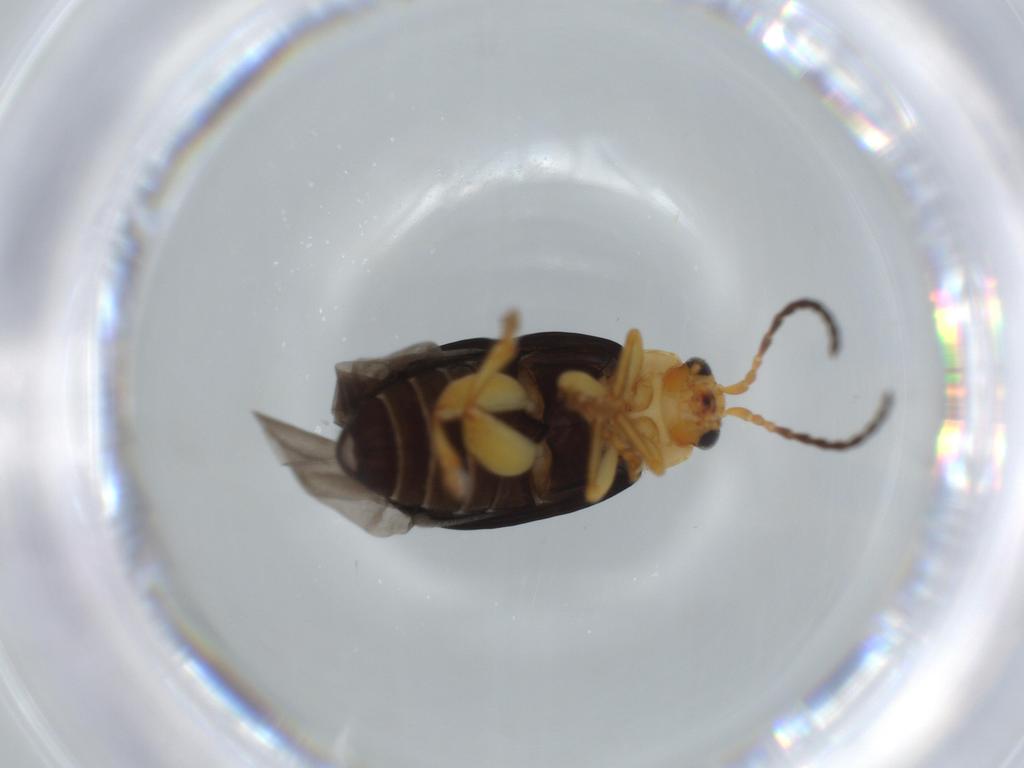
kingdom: Animalia
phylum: Arthropoda
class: Insecta
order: Coleoptera
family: Chrysomelidae
